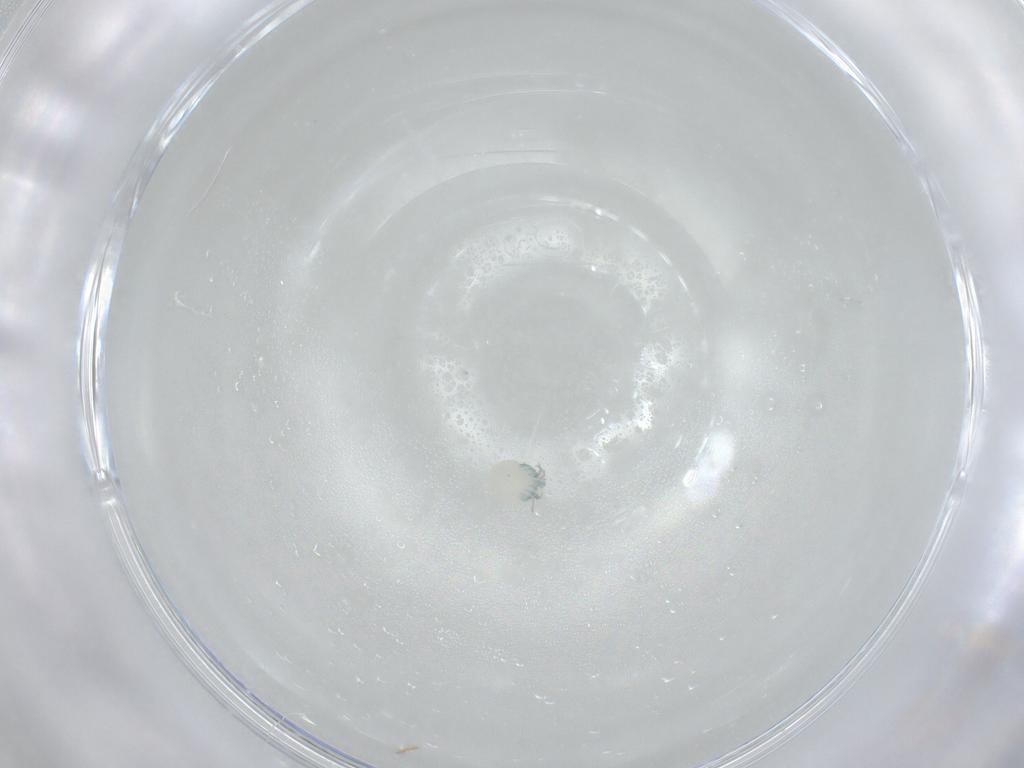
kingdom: Animalia
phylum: Arthropoda
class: Arachnida
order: Trombidiformes
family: Arrenuridae
